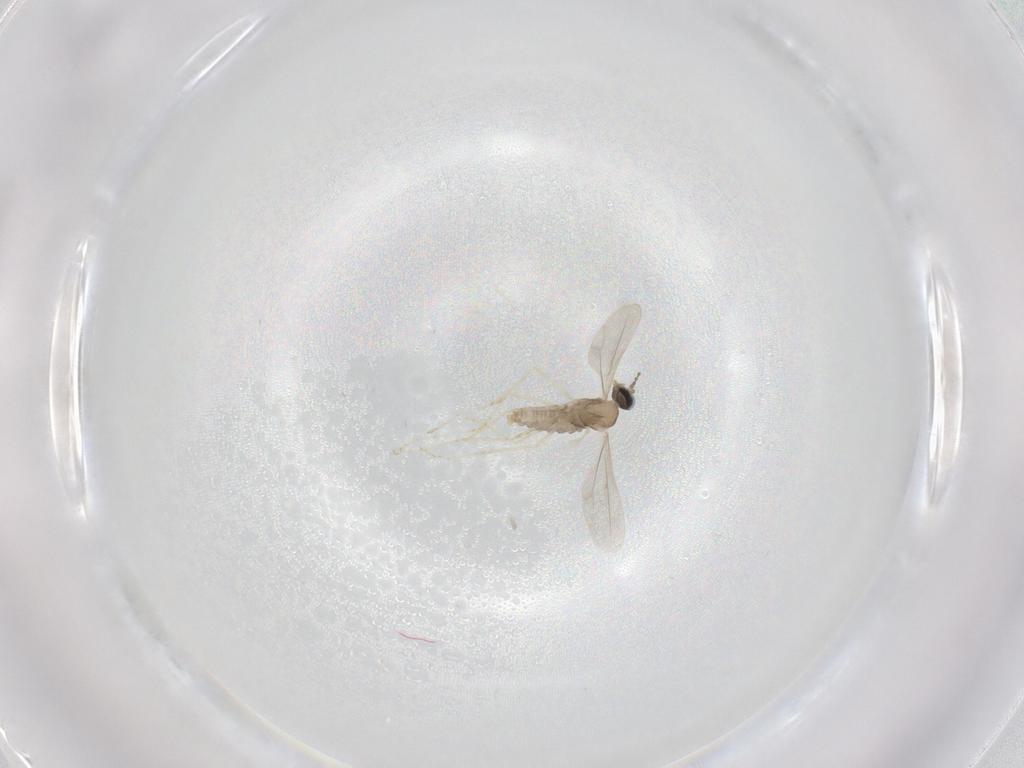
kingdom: Animalia
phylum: Arthropoda
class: Insecta
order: Diptera
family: Cecidomyiidae
